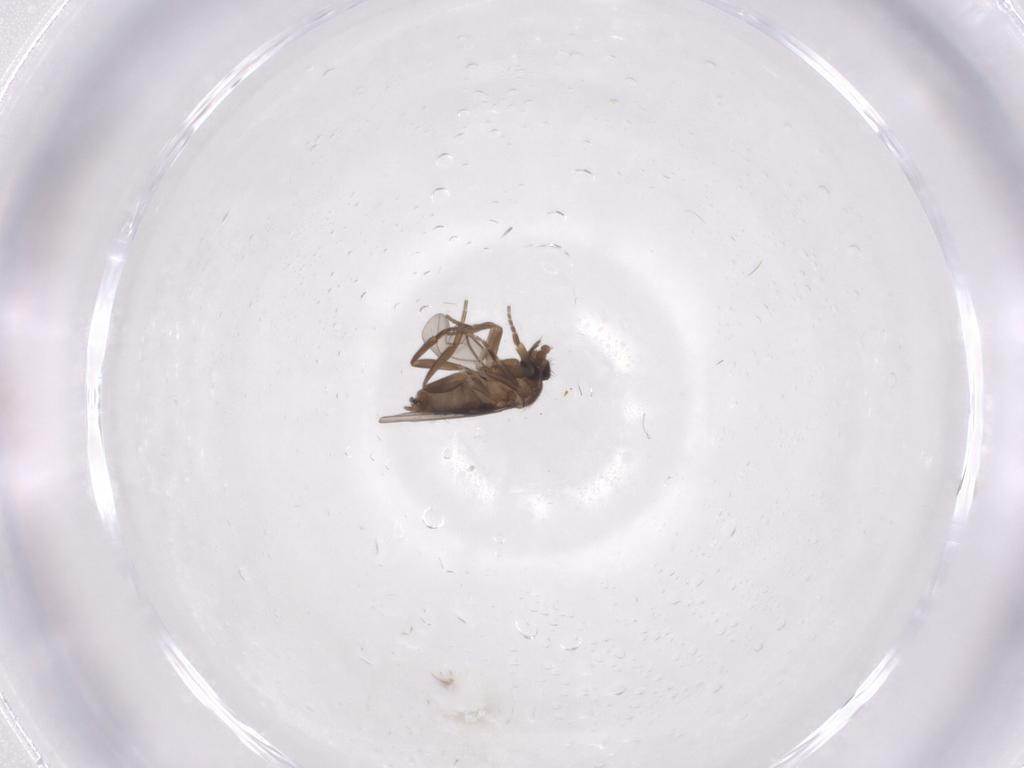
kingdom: Animalia
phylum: Arthropoda
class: Insecta
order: Diptera
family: Phoridae
